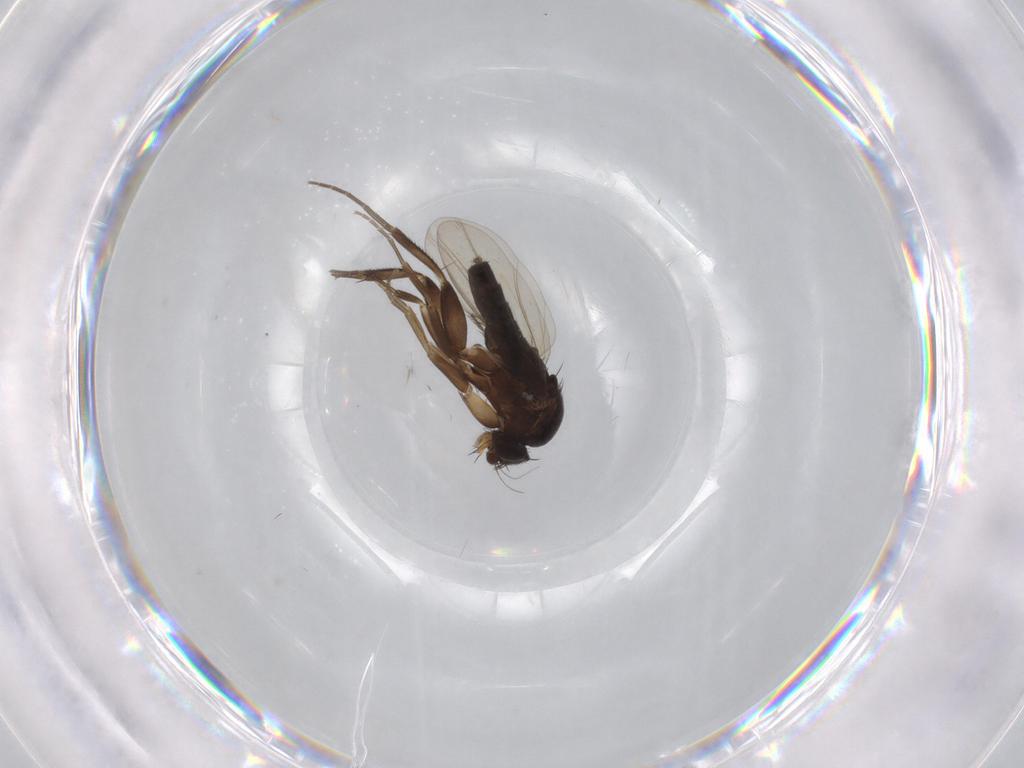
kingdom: Animalia
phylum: Arthropoda
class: Insecta
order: Diptera
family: Phoridae
